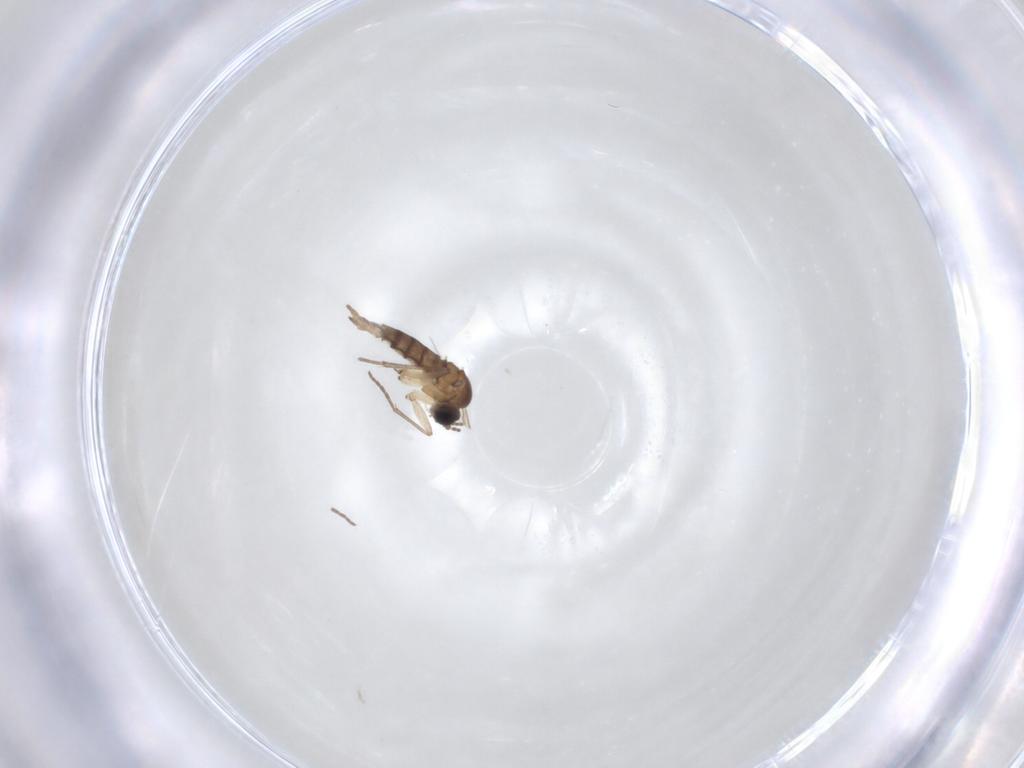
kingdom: Animalia
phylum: Arthropoda
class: Insecta
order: Diptera
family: Sciaridae
